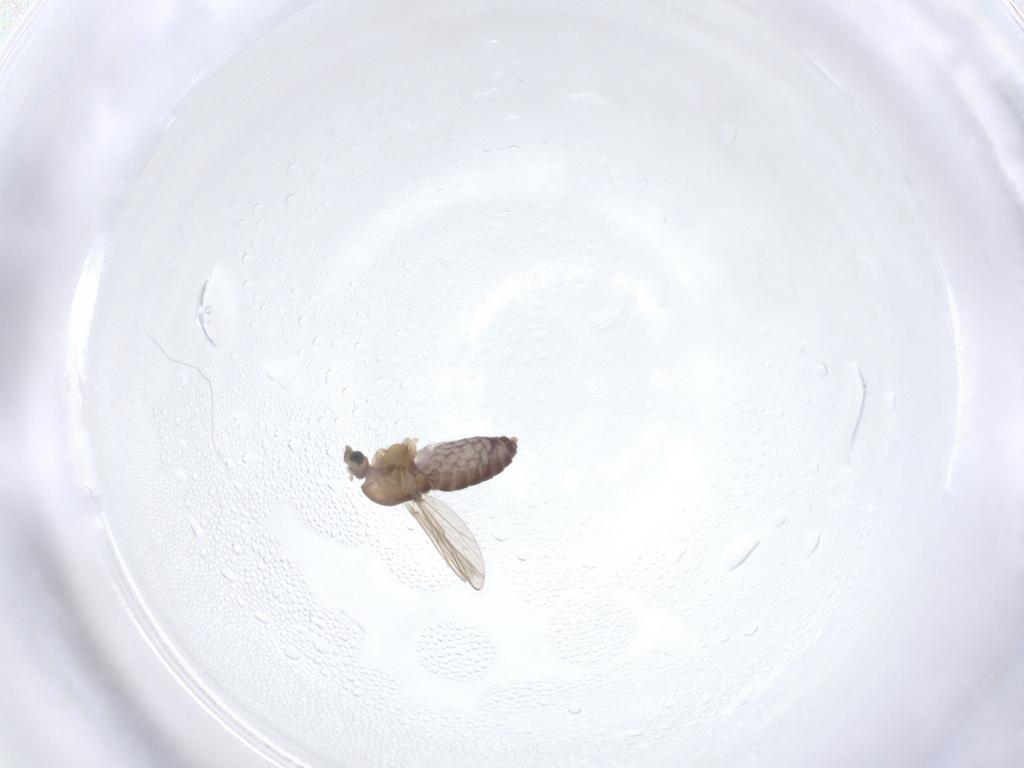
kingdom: Animalia
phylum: Arthropoda
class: Insecta
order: Diptera
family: Chironomidae
